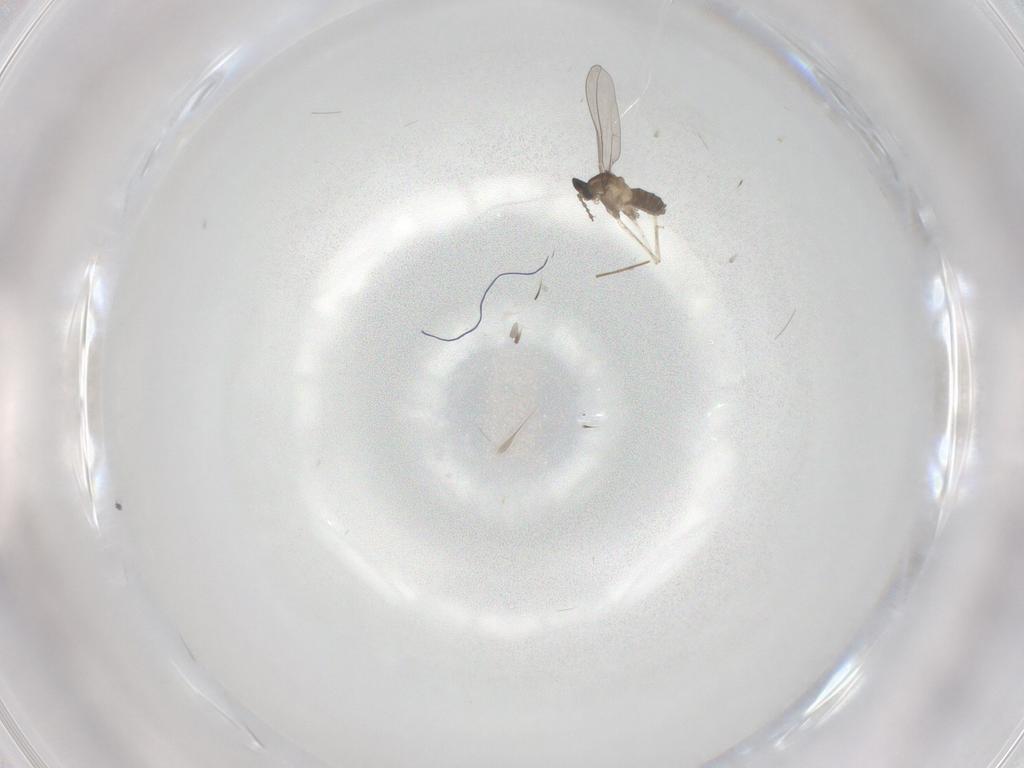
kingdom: Animalia
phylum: Arthropoda
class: Insecta
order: Diptera
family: Cecidomyiidae
